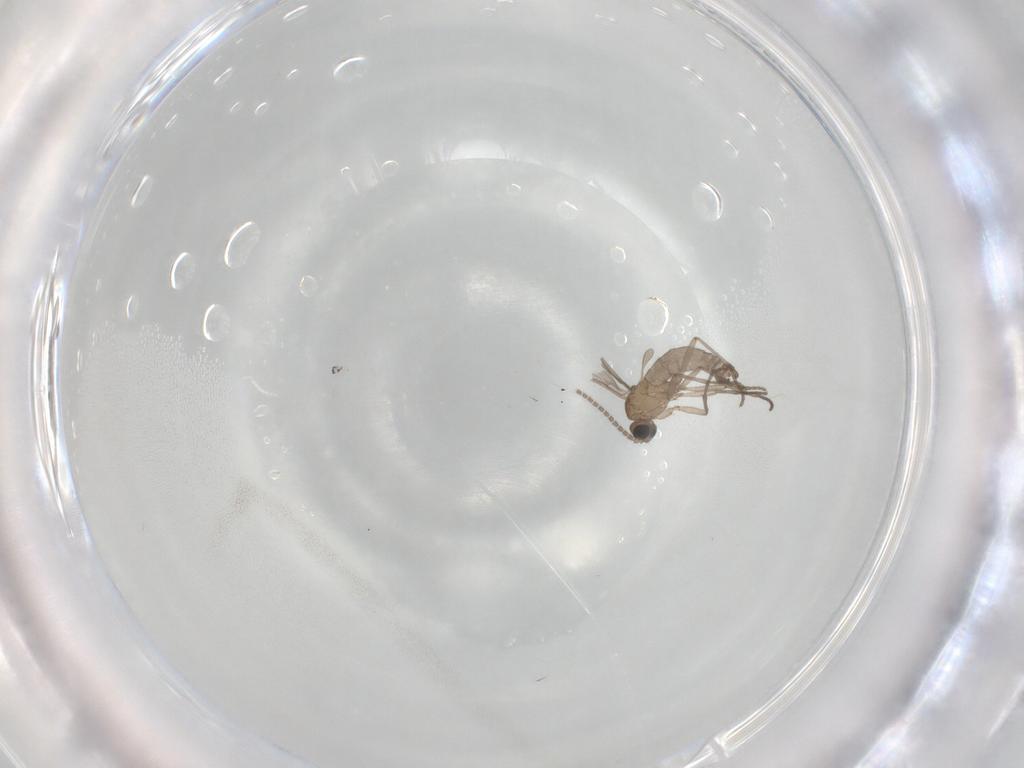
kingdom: Animalia
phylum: Arthropoda
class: Insecta
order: Diptera
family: Sciaridae
